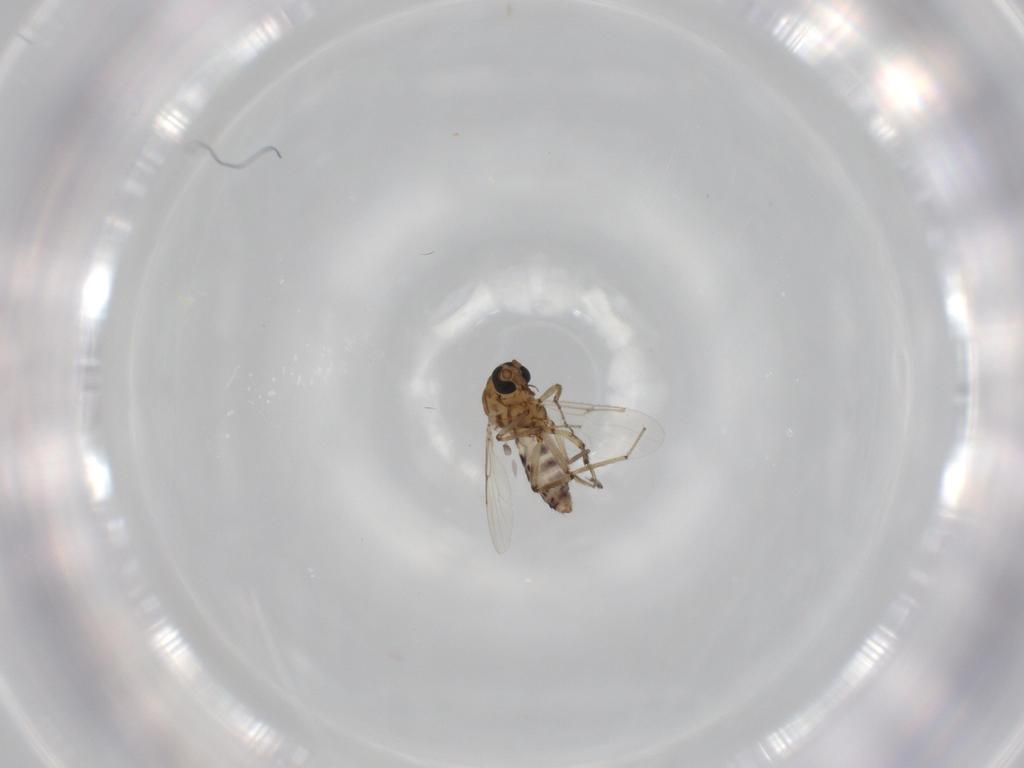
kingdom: Animalia
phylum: Arthropoda
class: Insecta
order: Diptera
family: Ceratopogonidae
